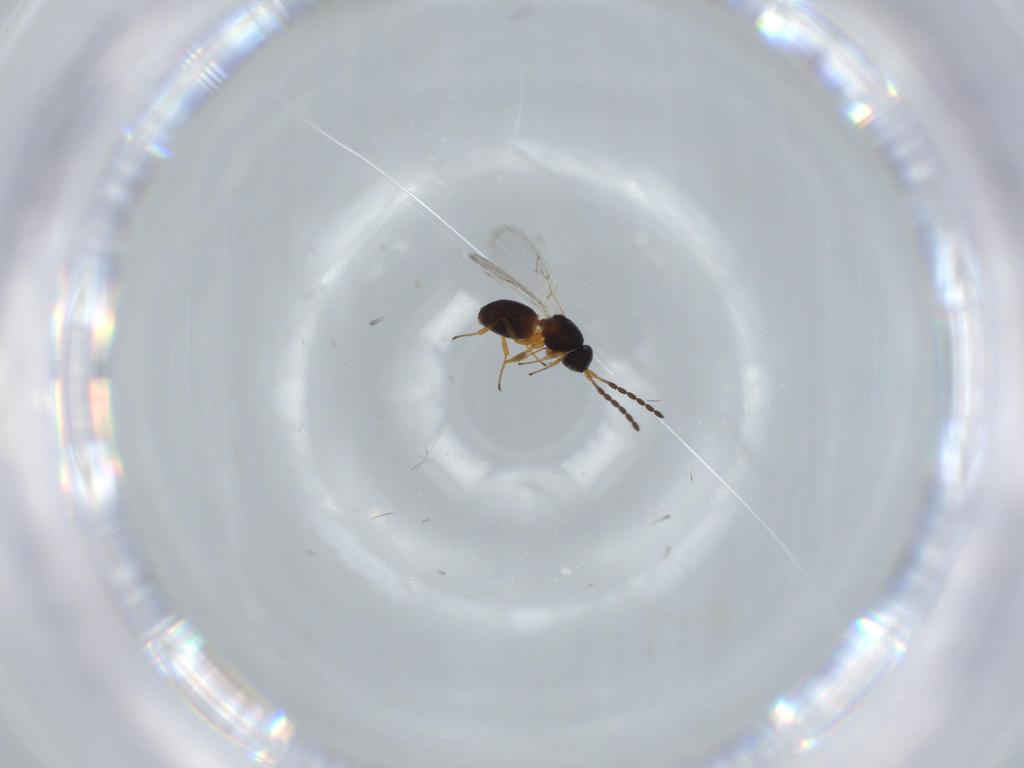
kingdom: Animalia
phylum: Arthropoda
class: Insecta
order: Hymenoptera
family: Figitidae
